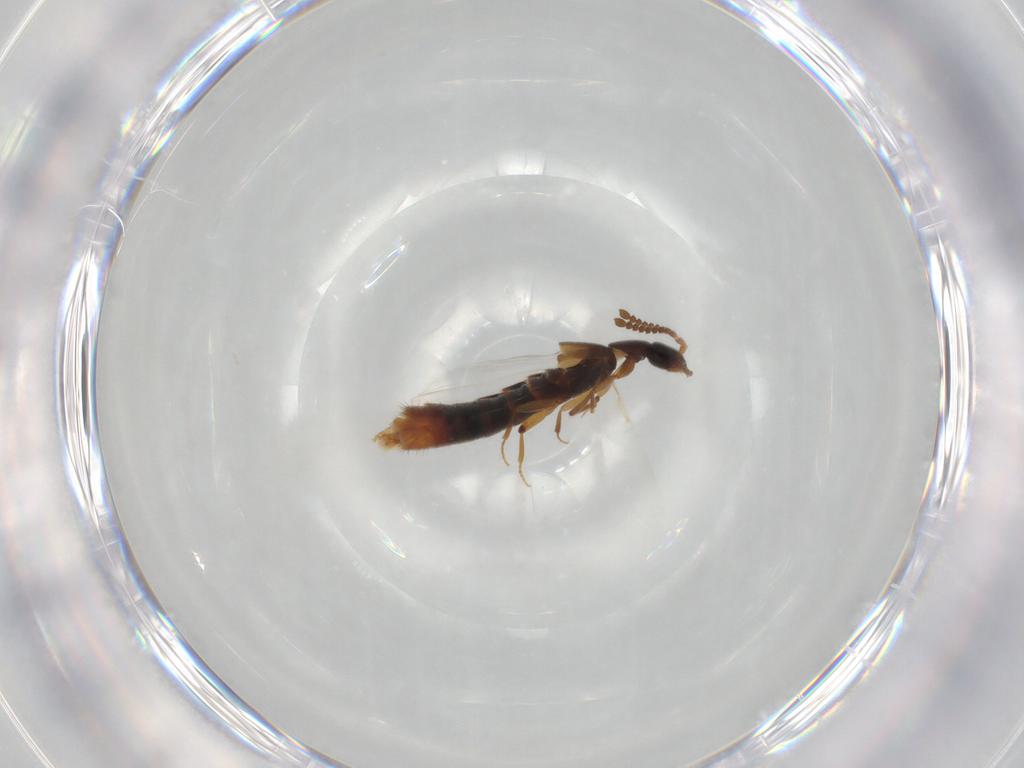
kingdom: Animalia
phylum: Arthropoda
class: Insecta
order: Coleoptera
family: Staphylinidae
